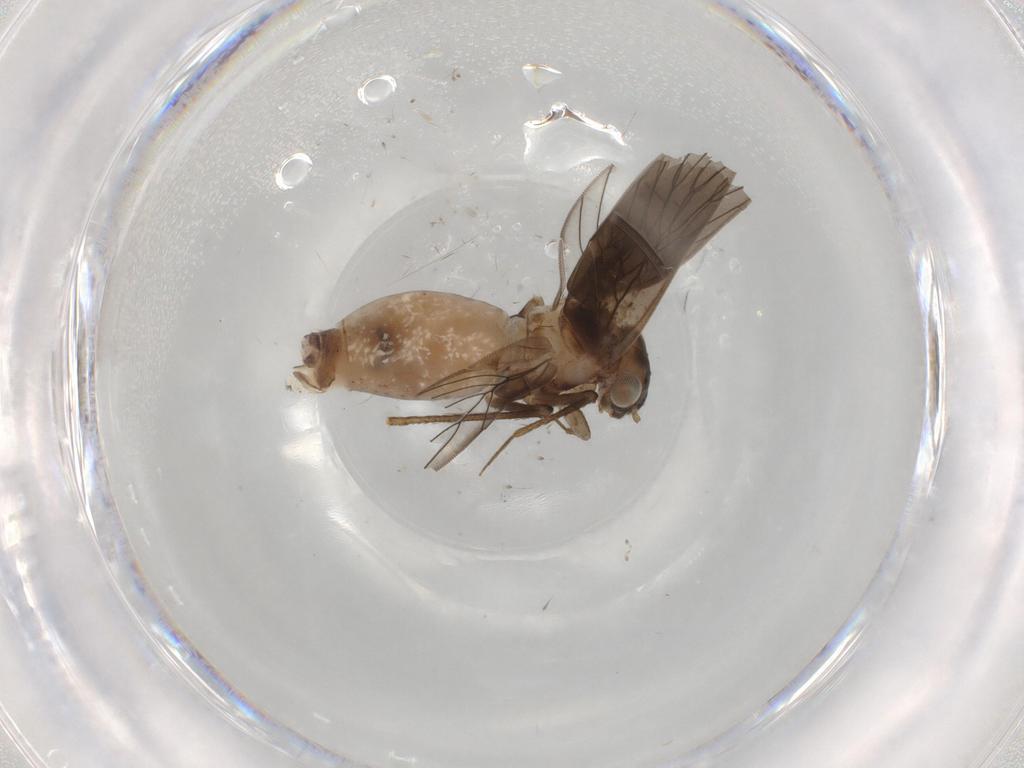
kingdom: Animalia
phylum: Arthropoda
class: Insecta
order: Psocodea
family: Lepidopsocidae
